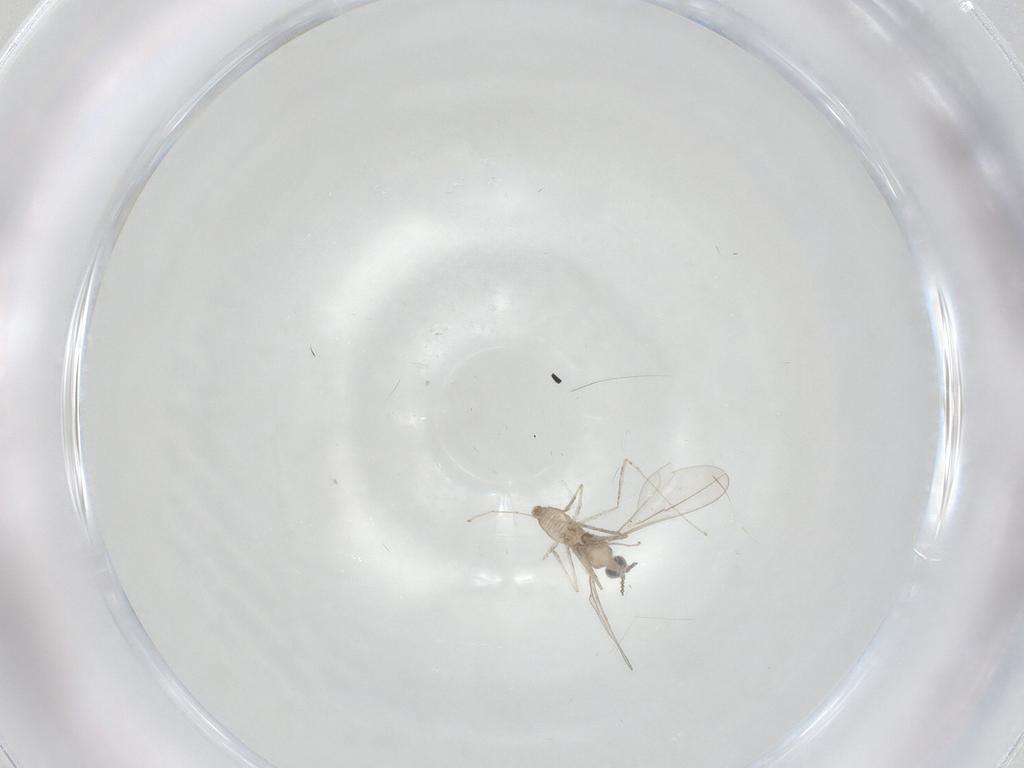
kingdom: Animalia
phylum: Arthropoda
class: Insecta
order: Diptera
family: Cecidomyiidae
